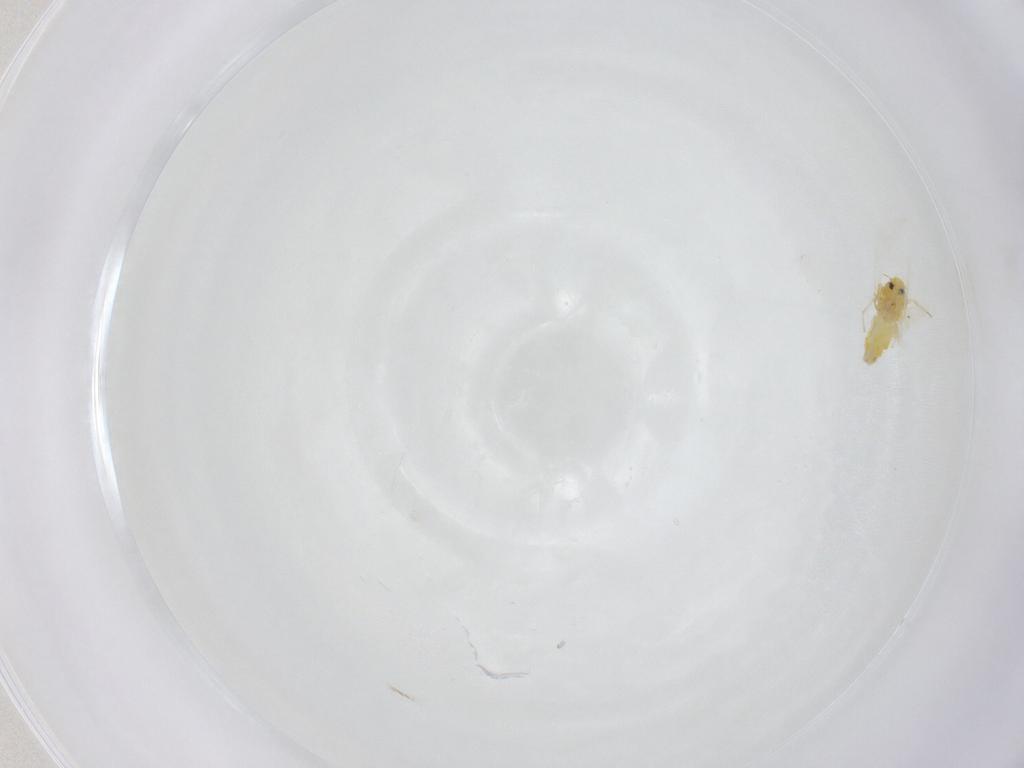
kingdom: Animalia
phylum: Arthropoda
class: Insecta
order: Hemiptera
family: Aleyrodidae
